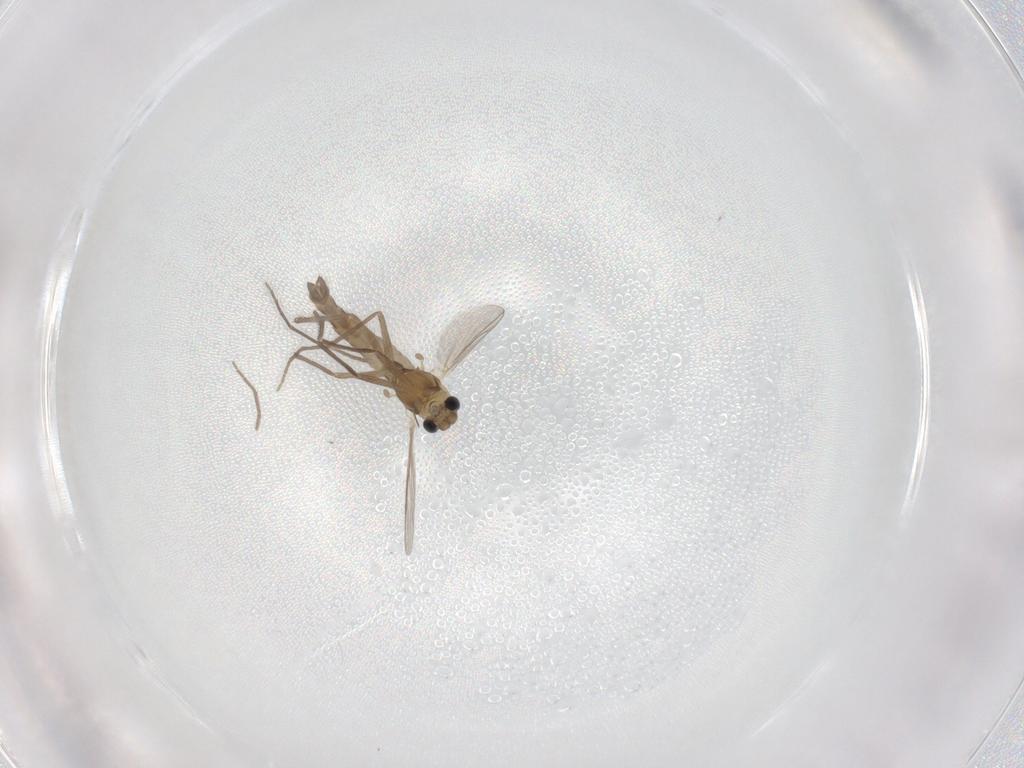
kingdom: Animalia
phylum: Arthropoda
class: Insecta
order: Diptera
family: Chironomidae
